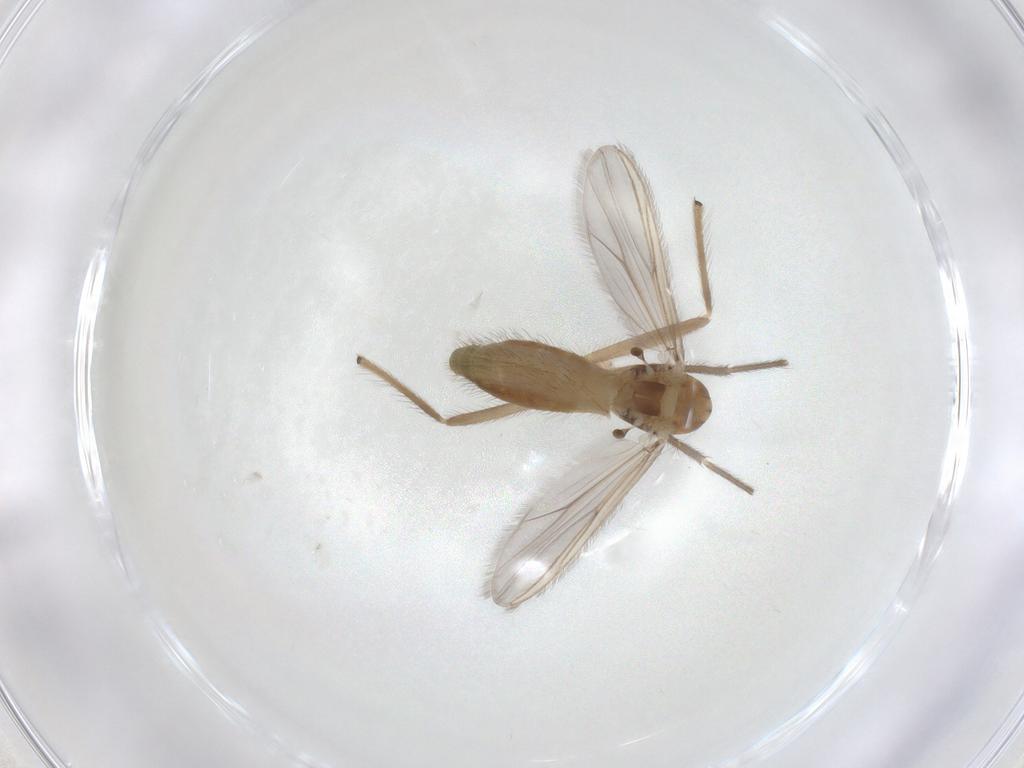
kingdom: Animalia
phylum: Arthropoda
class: Insecta
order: Diptera
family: Chironomidae
